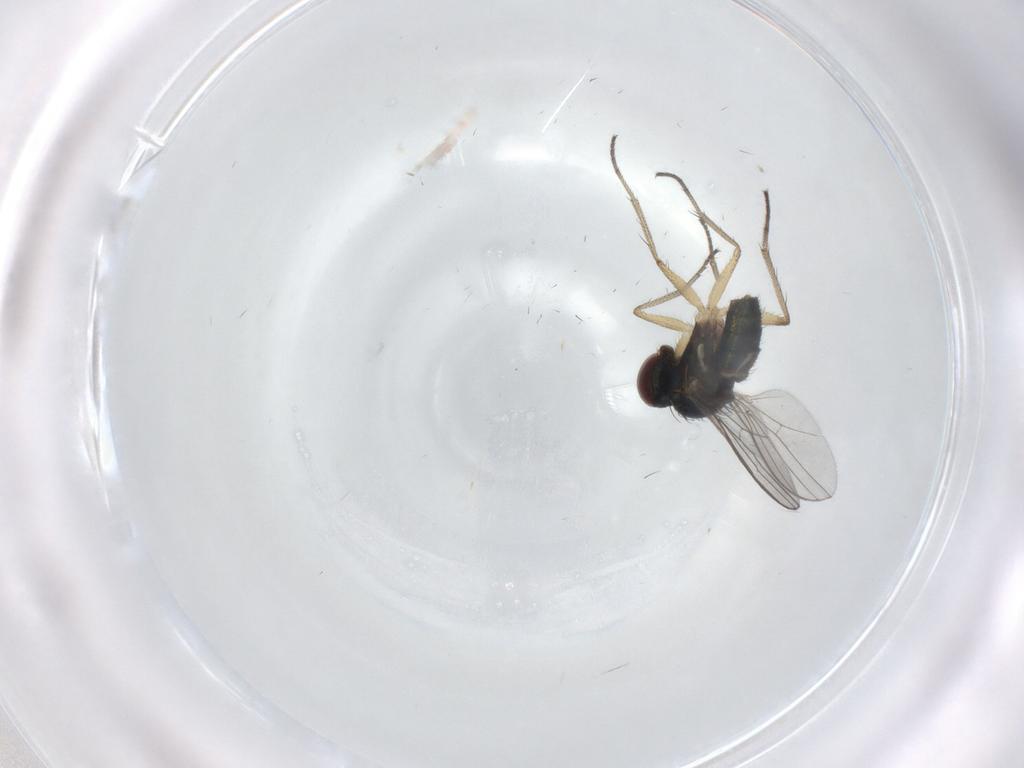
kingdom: Animalia
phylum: Arthropoda
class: Insecta
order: Diptera
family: Dolichopodidae
